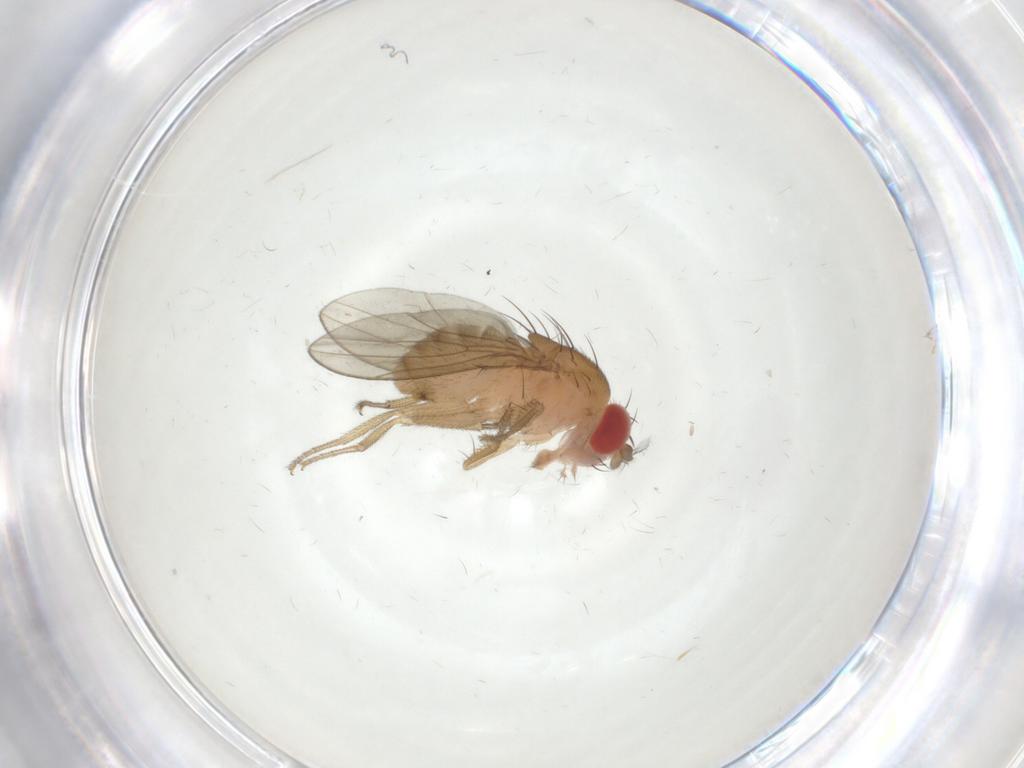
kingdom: Animalia
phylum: Arthropoda
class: Insecta
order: Diptera
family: Drosophilidae
